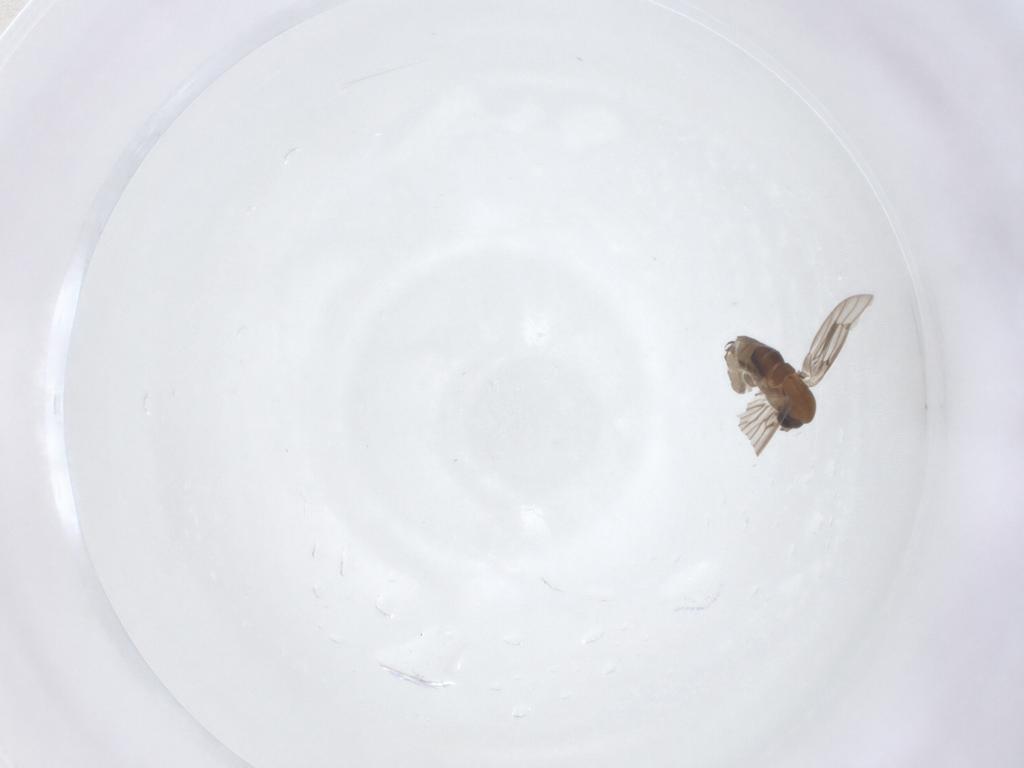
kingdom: Animalia
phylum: Arthropoda
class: Insecta
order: Diptera
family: Psychodidae
